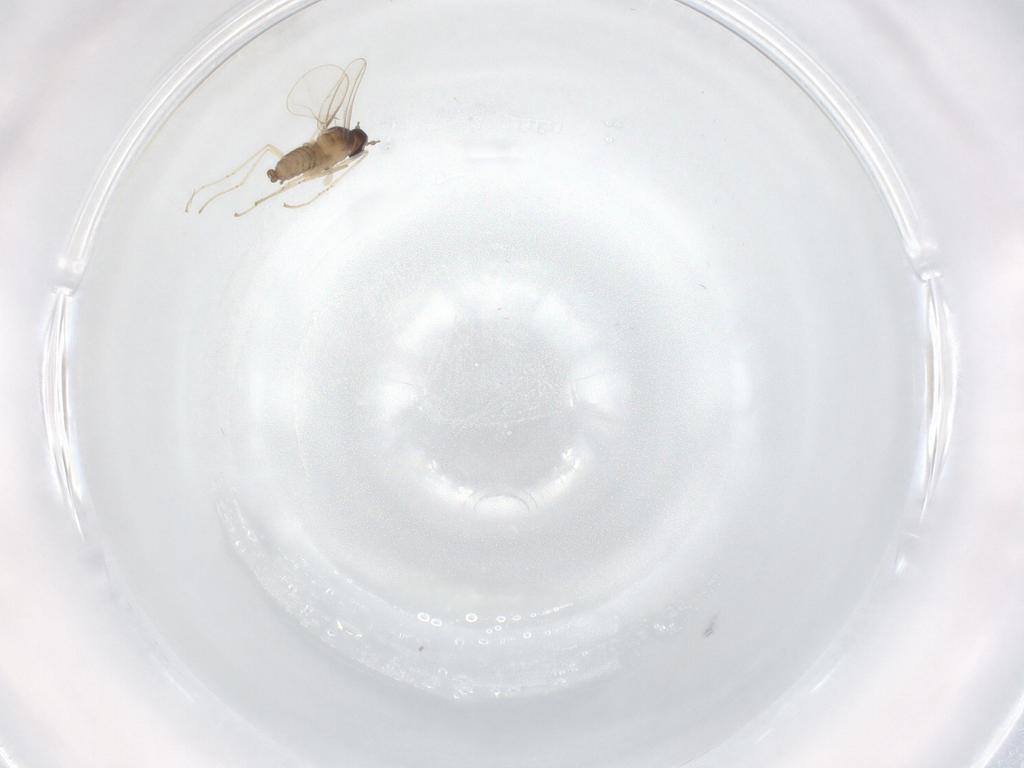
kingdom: Animalia
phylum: Arthropoda
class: Insecta
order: Diptera
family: Cecidomyiidae
